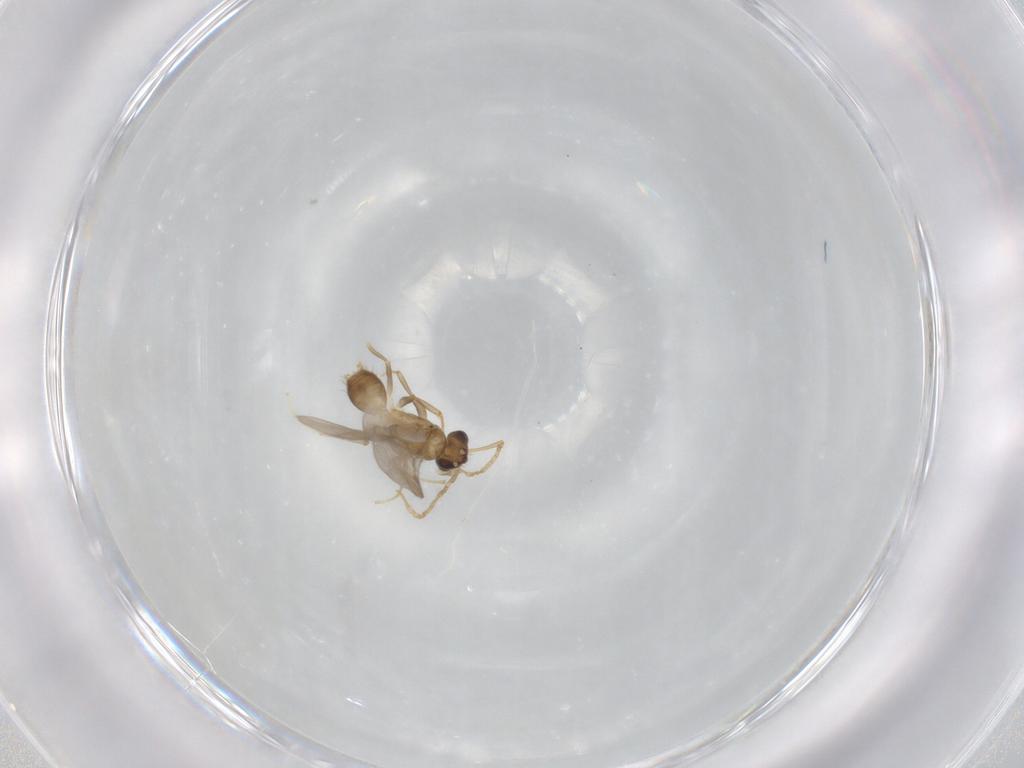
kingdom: Animalia
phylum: Arthropoda
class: Insecta
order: Hymenoptera
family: Formicidae
